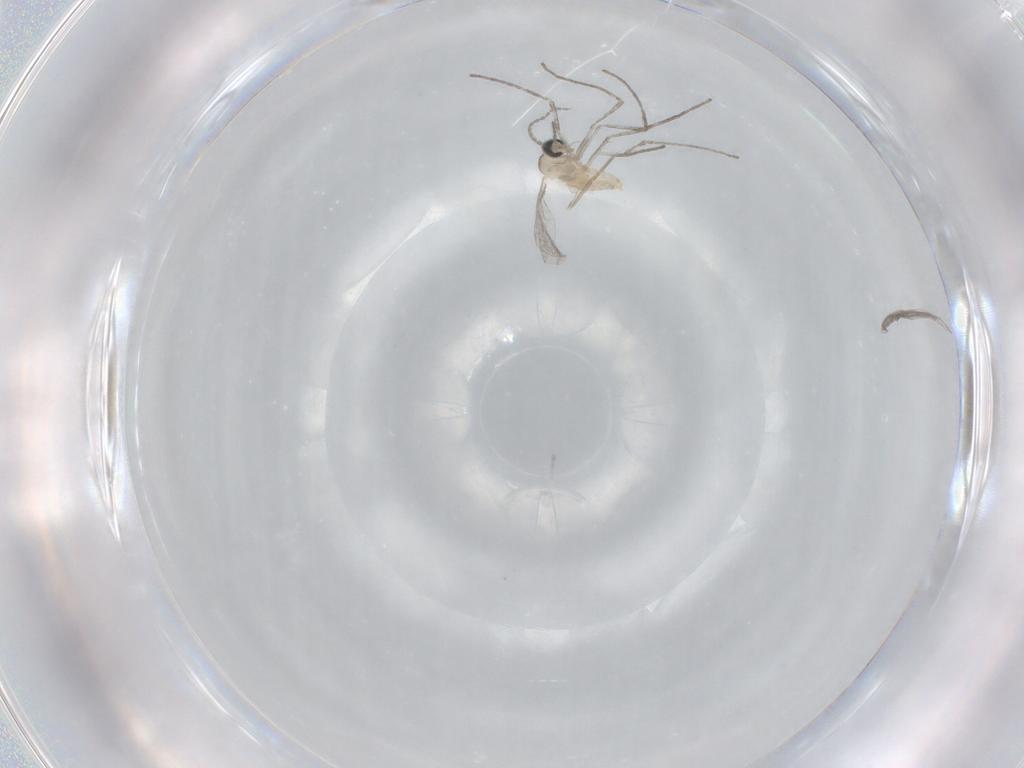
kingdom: Animalia
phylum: Arthropoda
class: Insecta
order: Diptera
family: Cecidomyiidae
